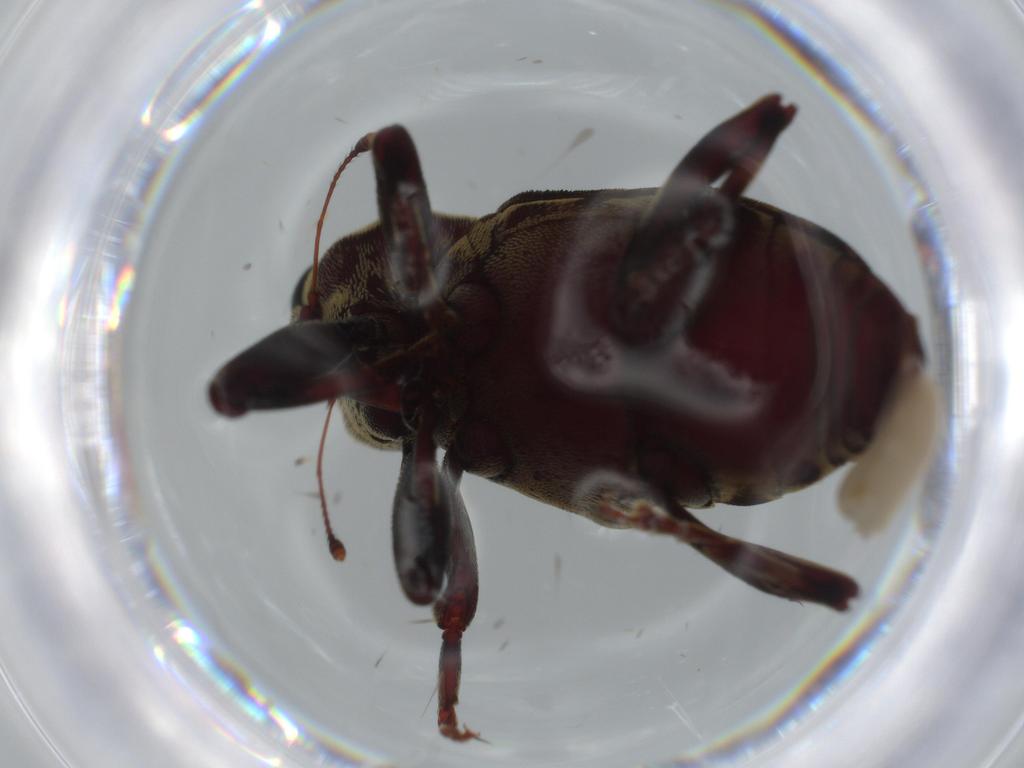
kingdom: Animalia
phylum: Arthropoda
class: Insecta
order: Coleoptera
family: Curculionidae
